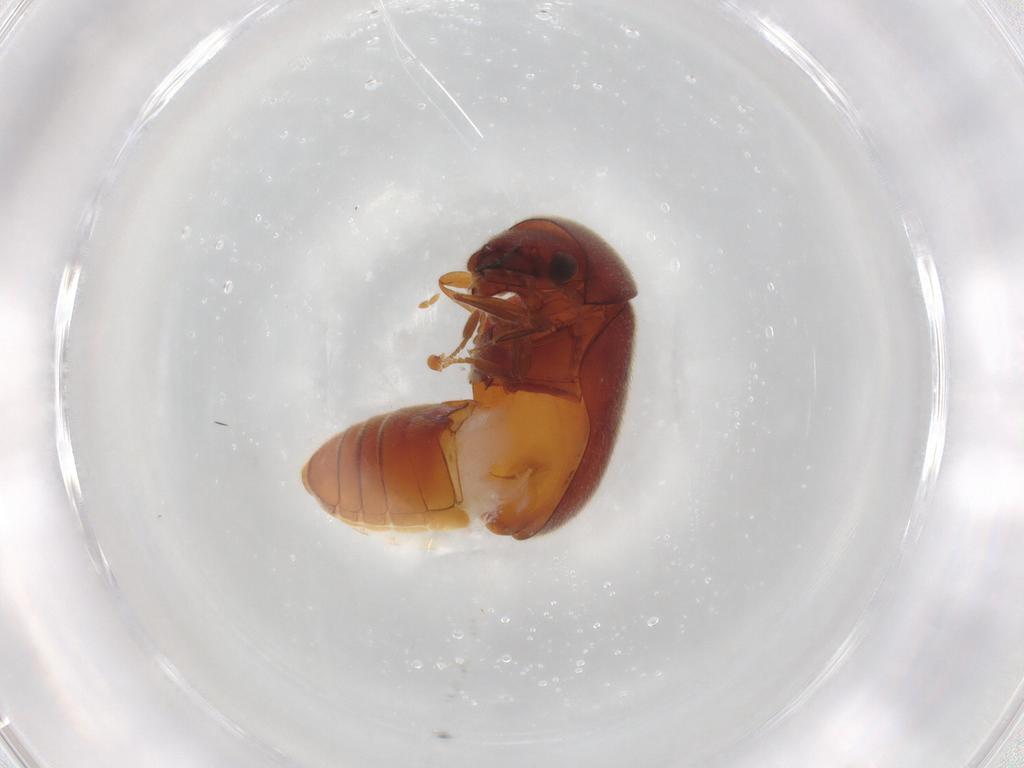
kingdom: Animalia
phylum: Arthropoda
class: Insecta
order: Coleoptera
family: Ptinidae
